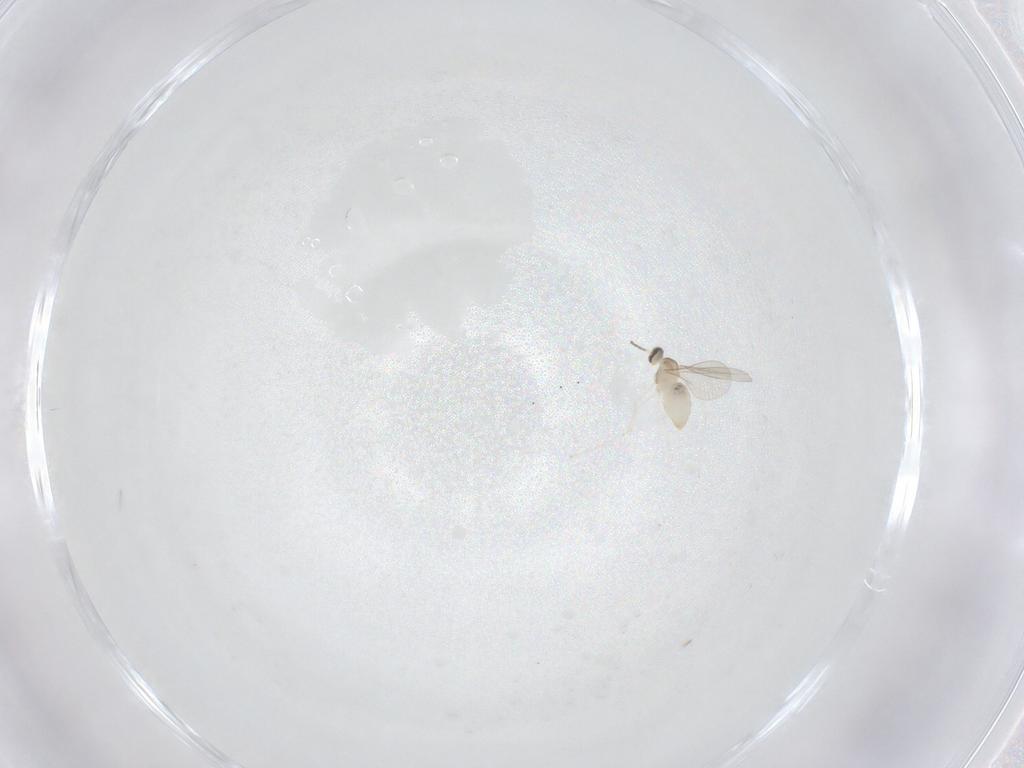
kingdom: Animalia
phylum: Arthropoda
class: Insecta
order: Diptera
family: Cecidomyiidae
